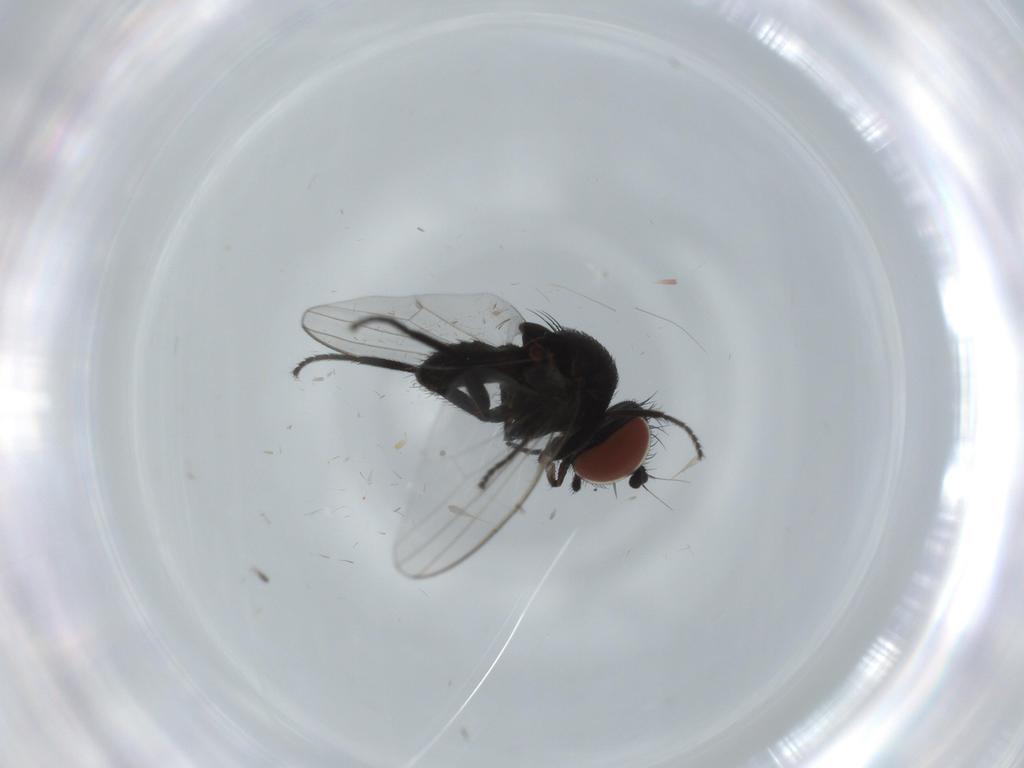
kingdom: Animalia
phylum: Arthropoda
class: Insecta
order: Diptera
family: Milichiidae
